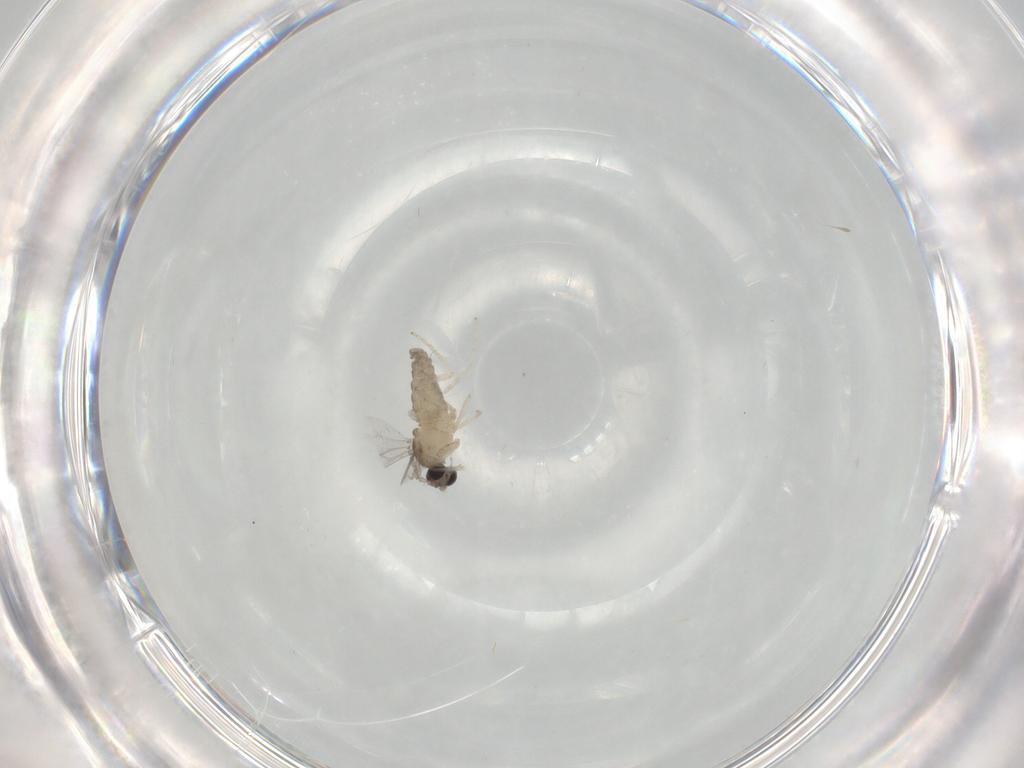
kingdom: Animalia
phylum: Arthropoda
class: Insecta
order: Diptera
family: Cecidomyiidae
